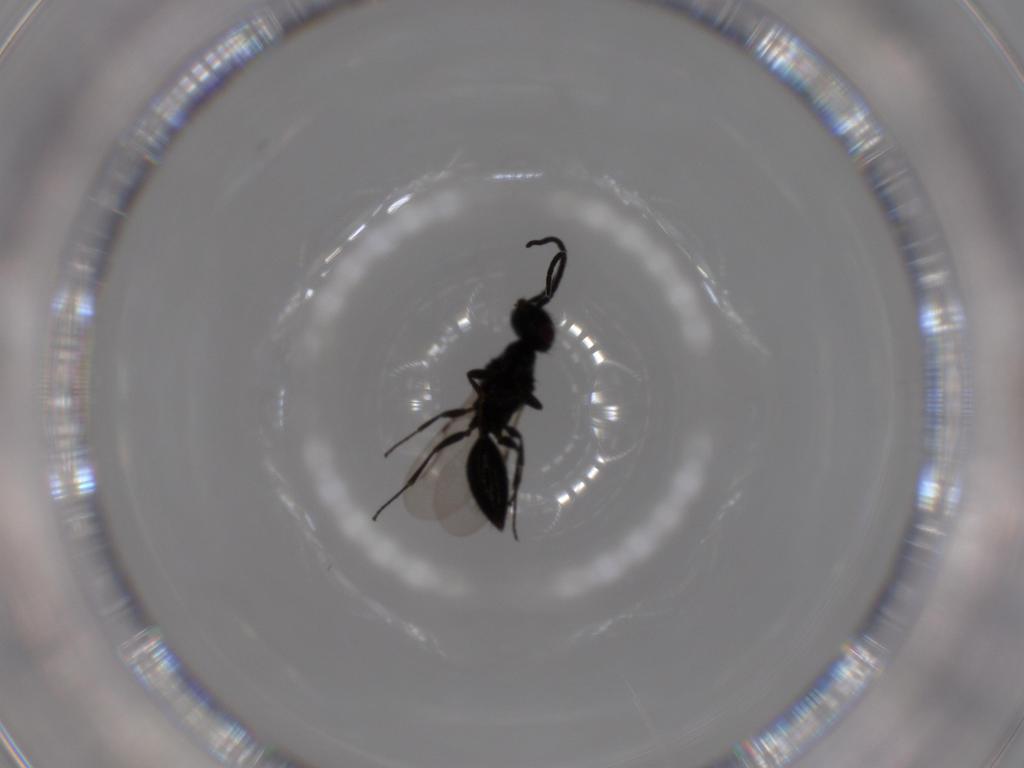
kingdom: Animalia
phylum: Arthropoda
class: Insecta
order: Hymenoptera
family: Bethylidae
